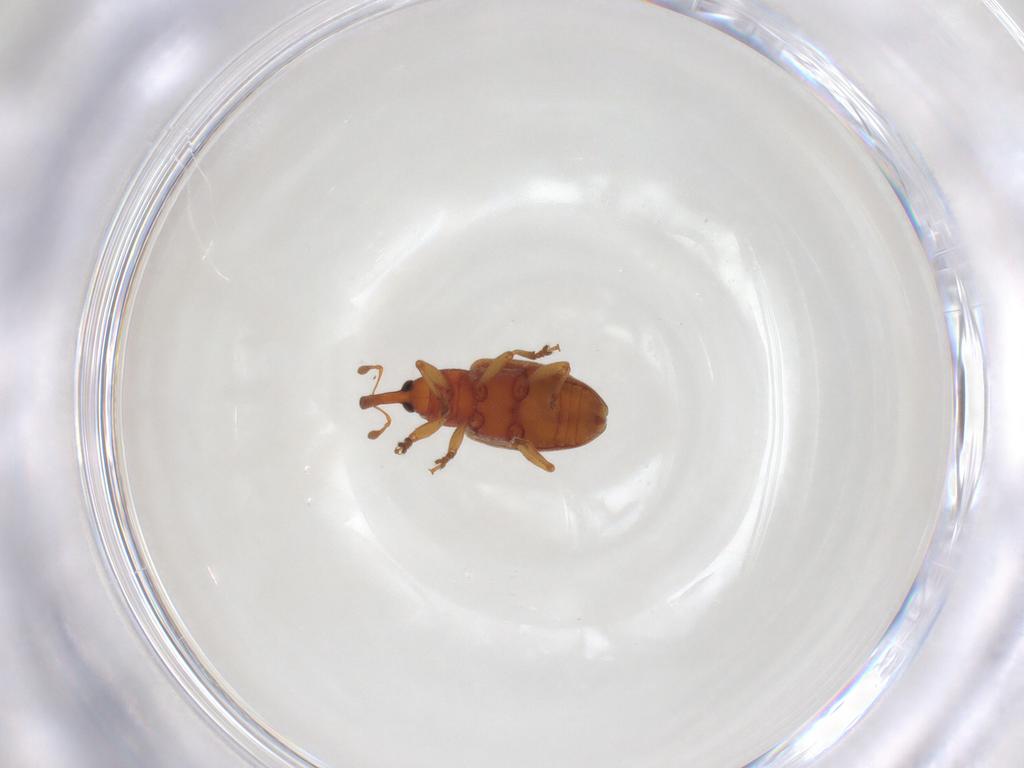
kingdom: Animalia
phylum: Arthropoda
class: Insecta
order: Coleoptera
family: Curculionidae
